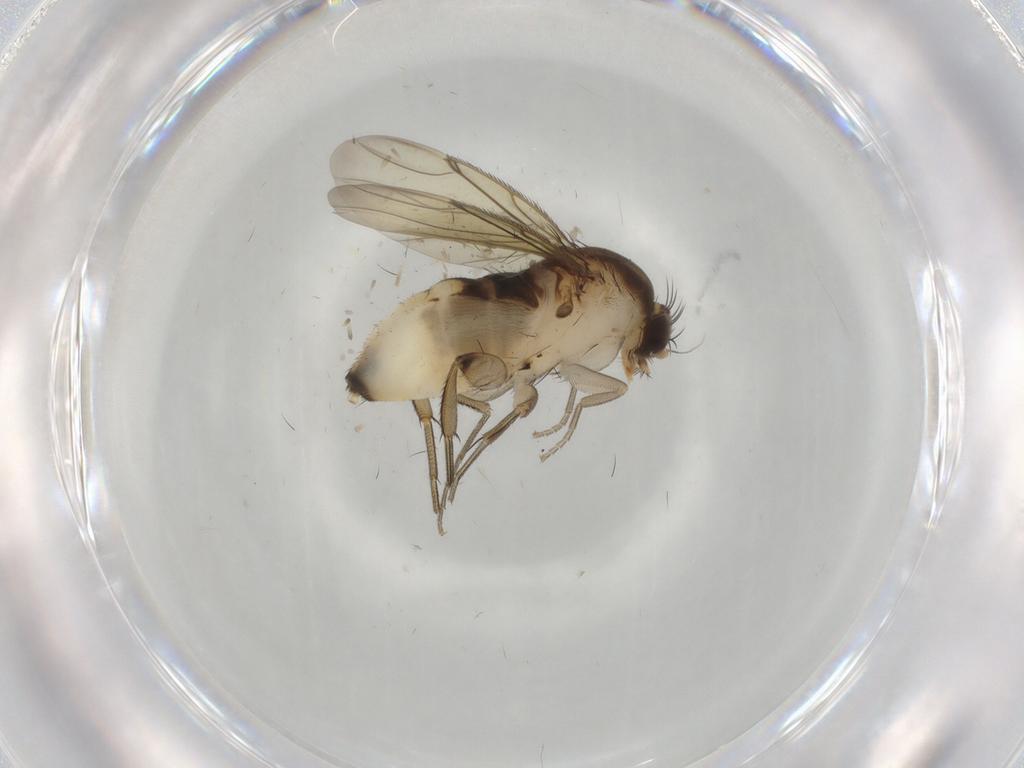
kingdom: Animalia
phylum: Arthropoda
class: Insecta
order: Diptera
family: Phoridae
